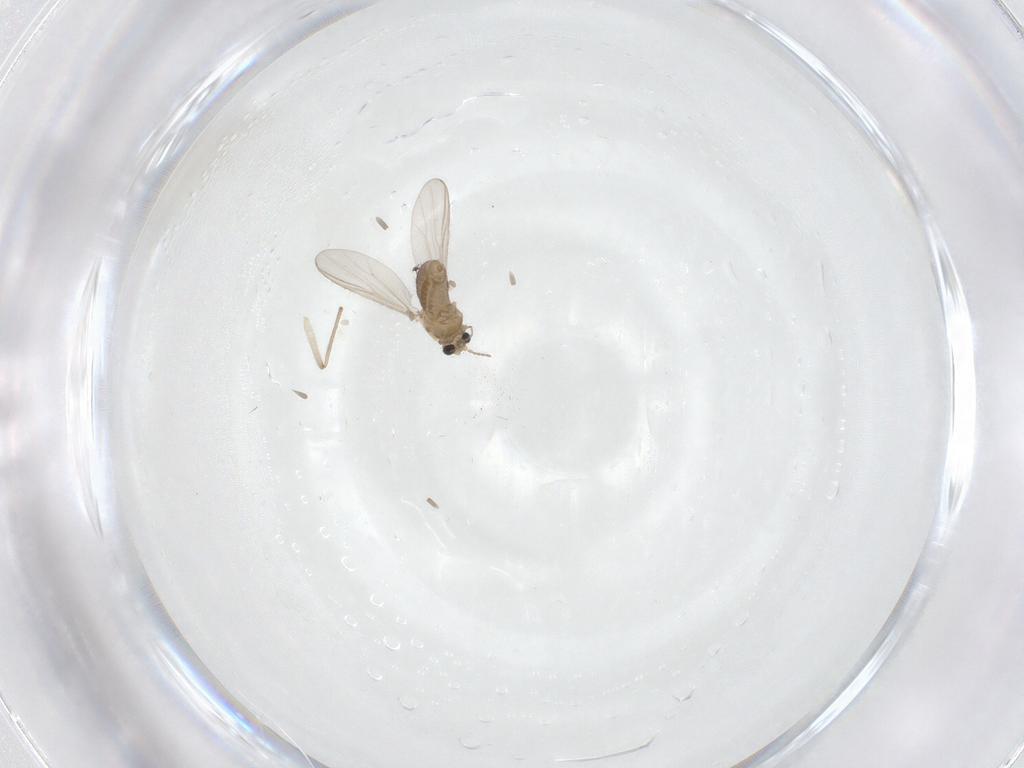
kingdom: Animalia
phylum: Arthropoda
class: Insecta
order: Diptera
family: Chironomidae
